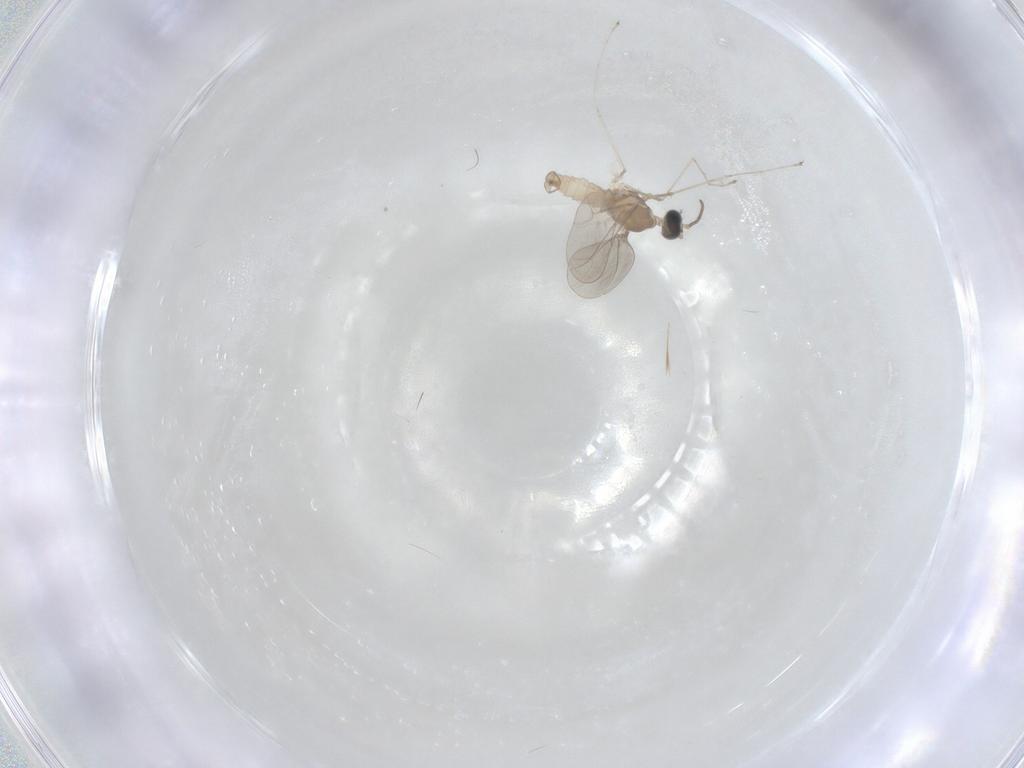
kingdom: Animalia
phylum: Arthropoda
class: Insecta
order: Diptera
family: Cecidomyiidae
